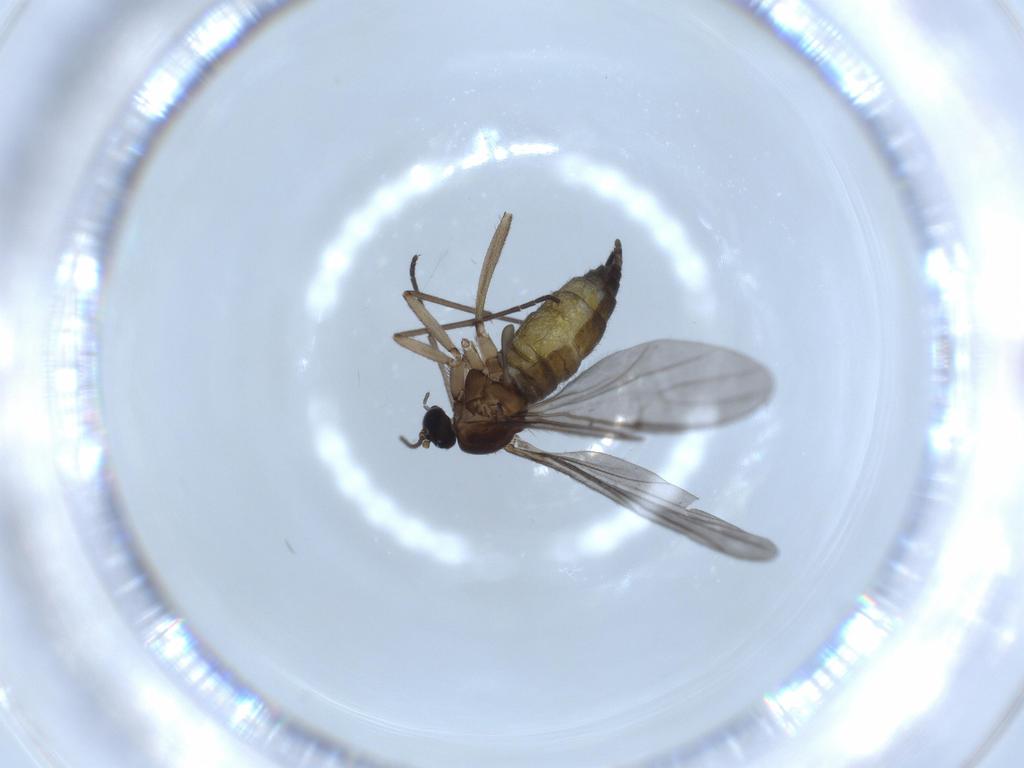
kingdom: Animalia
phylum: Arthropoda
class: Insecta
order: Diptera
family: Sciaridae
